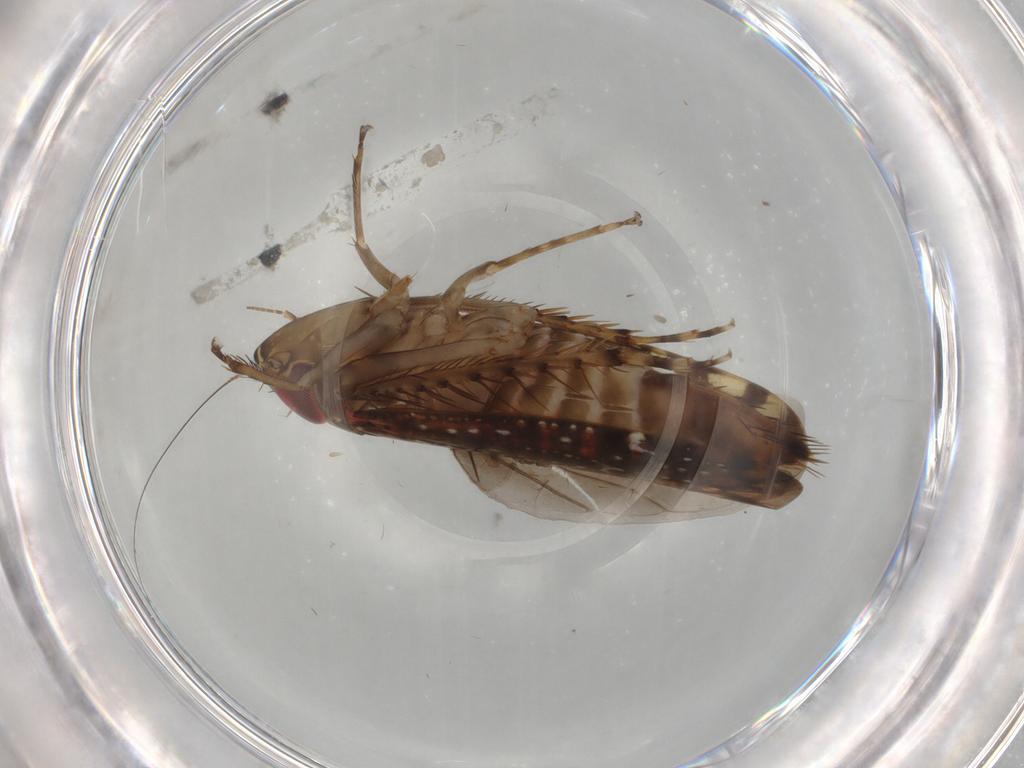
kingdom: Animalia
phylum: Arthropoda
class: Insecta
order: Hemiptera
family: Cicadellidae
